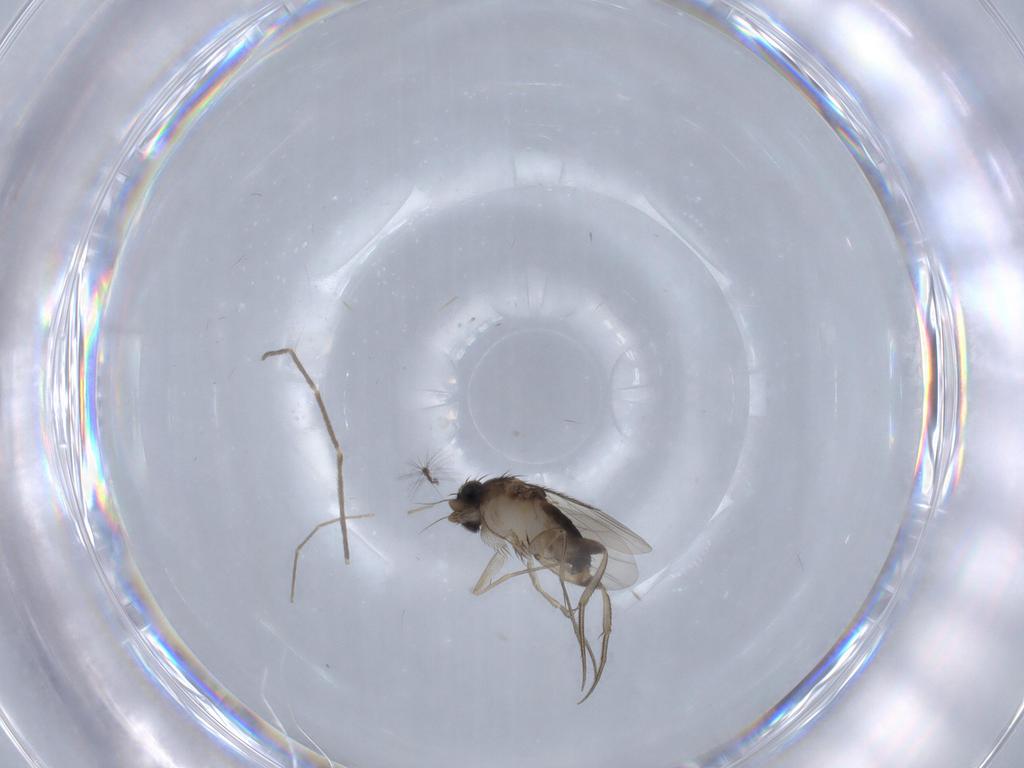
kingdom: Animalia
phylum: Arthropoda
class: Insecta
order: Diptera
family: Phoridae
